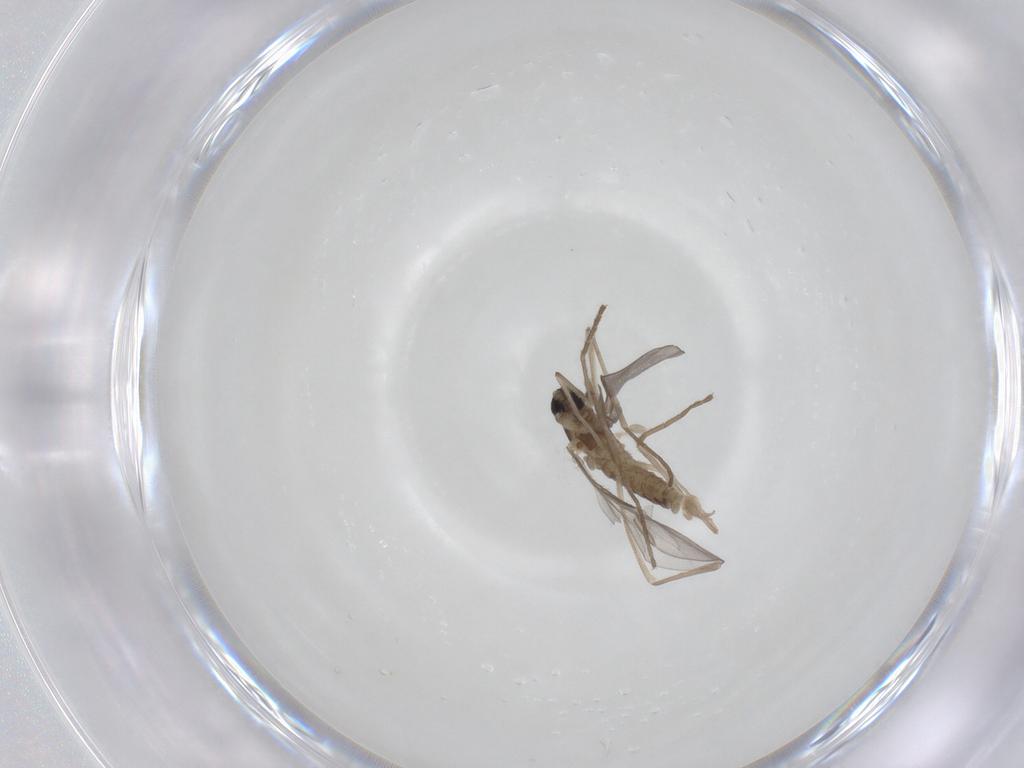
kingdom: Animalia
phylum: Arthropoda
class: Insecta
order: Diptera
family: Cecidomyiidae
